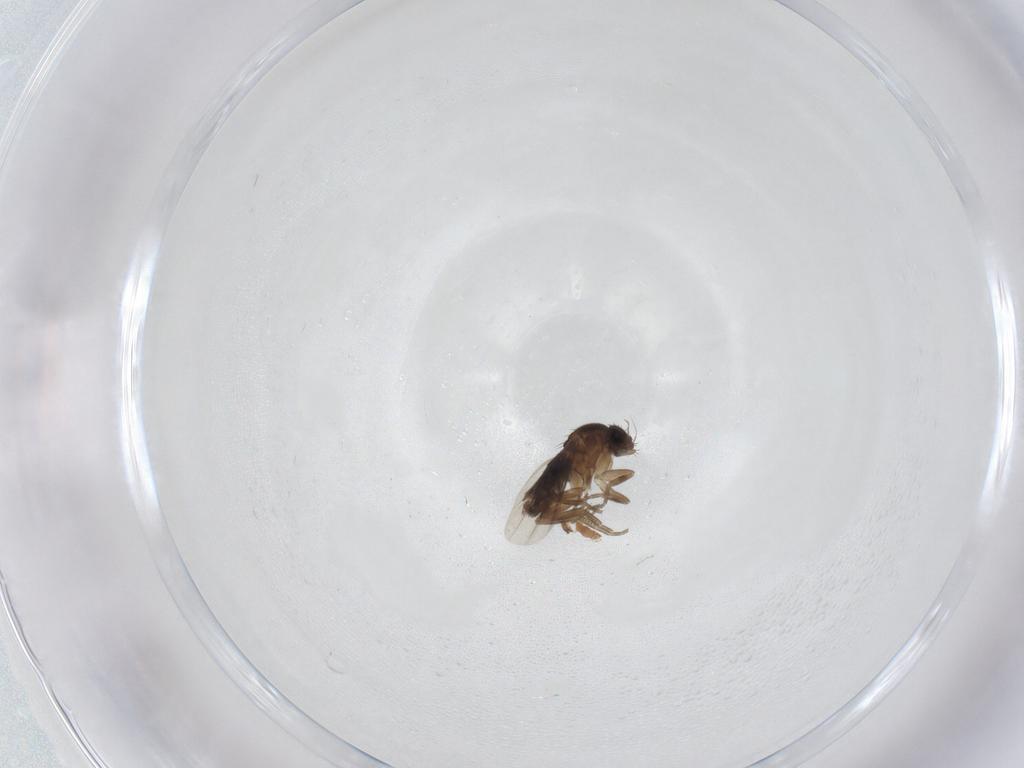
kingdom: Animalia
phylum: Arthropoda
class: Insecta
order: Diptera
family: Phoridae
